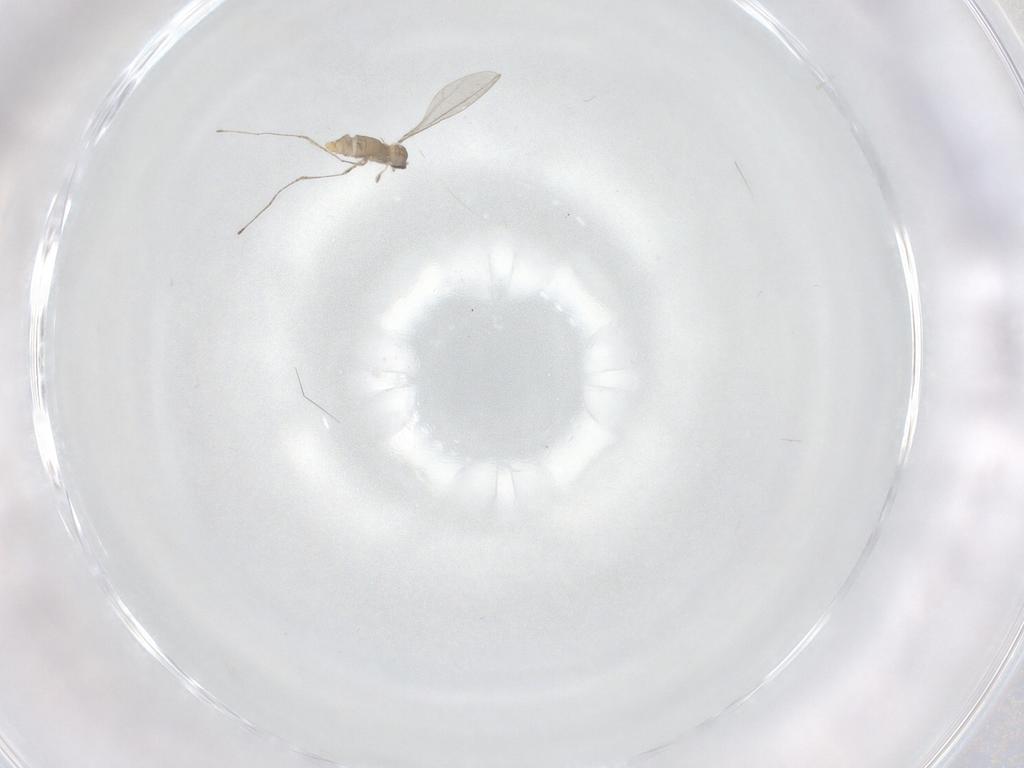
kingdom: Animalia
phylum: Arthropoda
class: Insecta
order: Diptera
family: Cecidomyiidae
